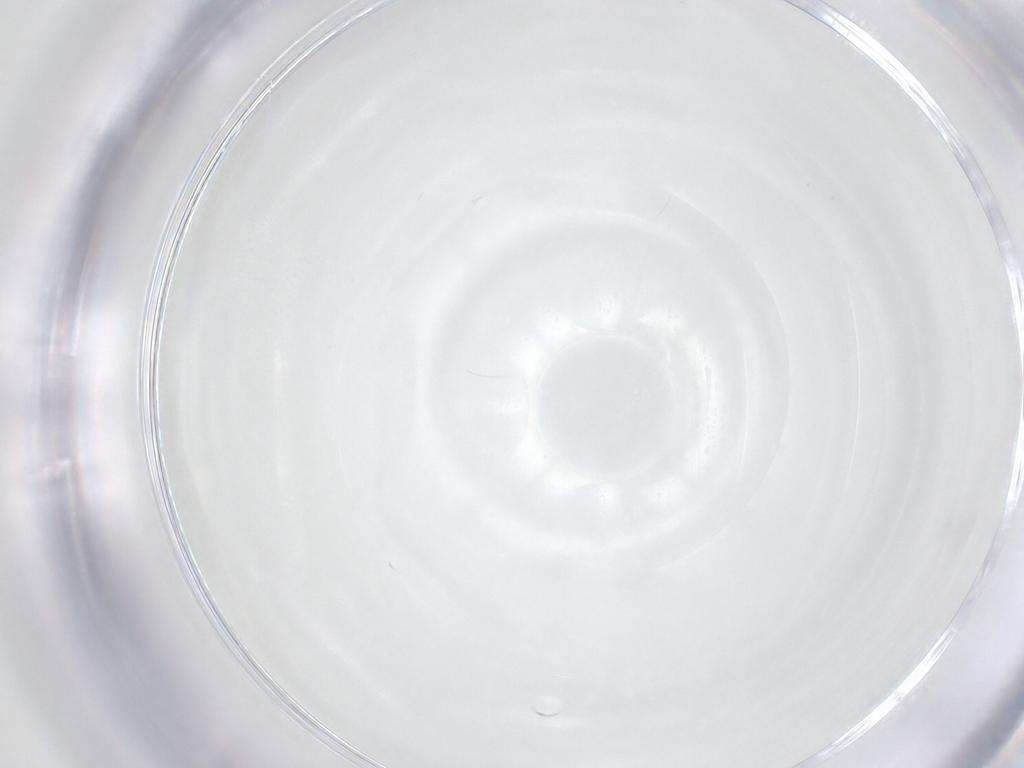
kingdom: Animalia
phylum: Arthropoda
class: Insecta
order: Hymenoptera
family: Signiphoridae
